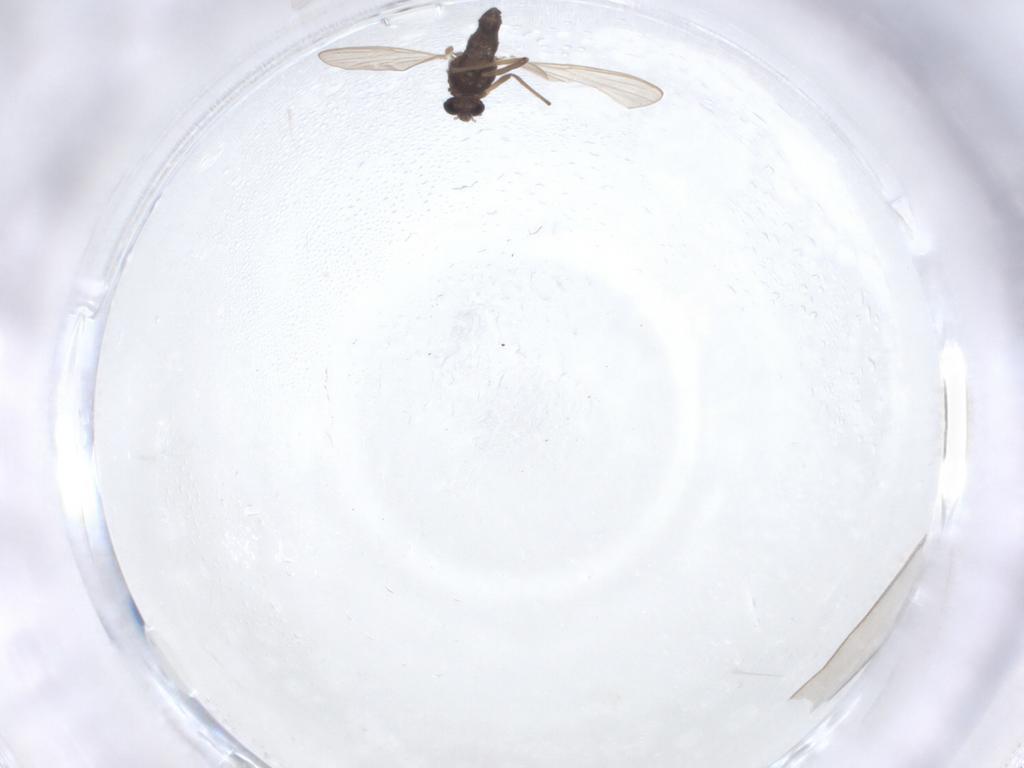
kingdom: Animalia
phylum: Arthropoda
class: Insecta
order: Diptera
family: Chironomidae
